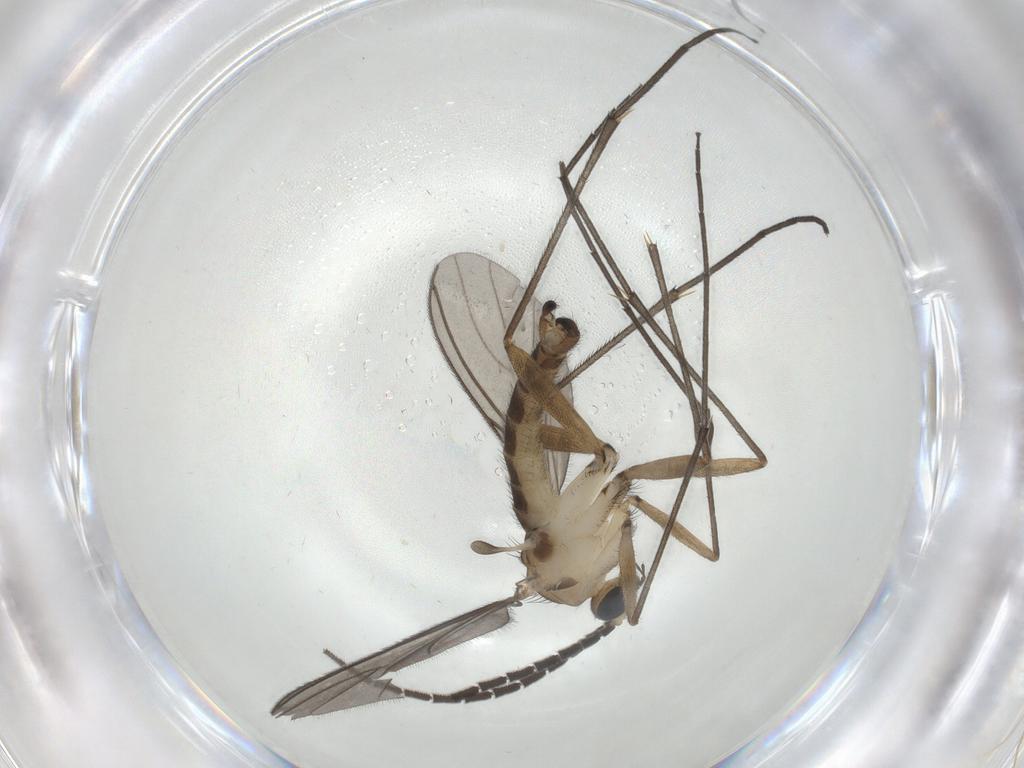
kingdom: Animalia
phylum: Arthropoda
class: Insecta
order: Diptera
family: Sciaridae
